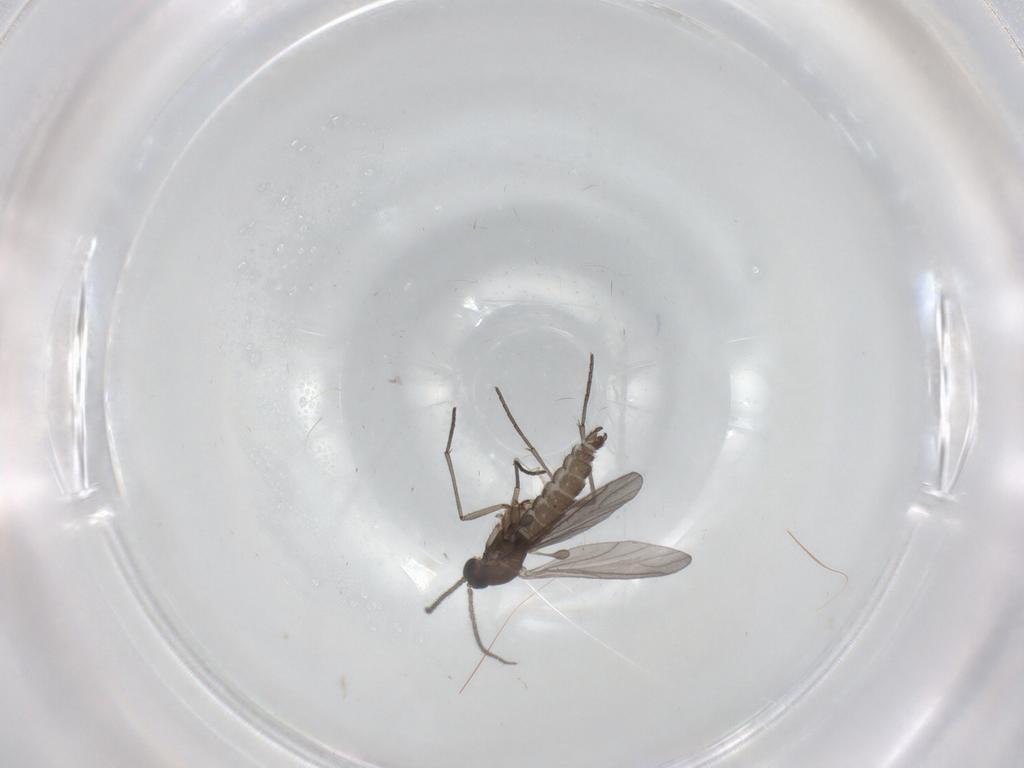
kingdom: Animalia
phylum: Arthropoda
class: Insecta
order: Diptera
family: Sciaridae
